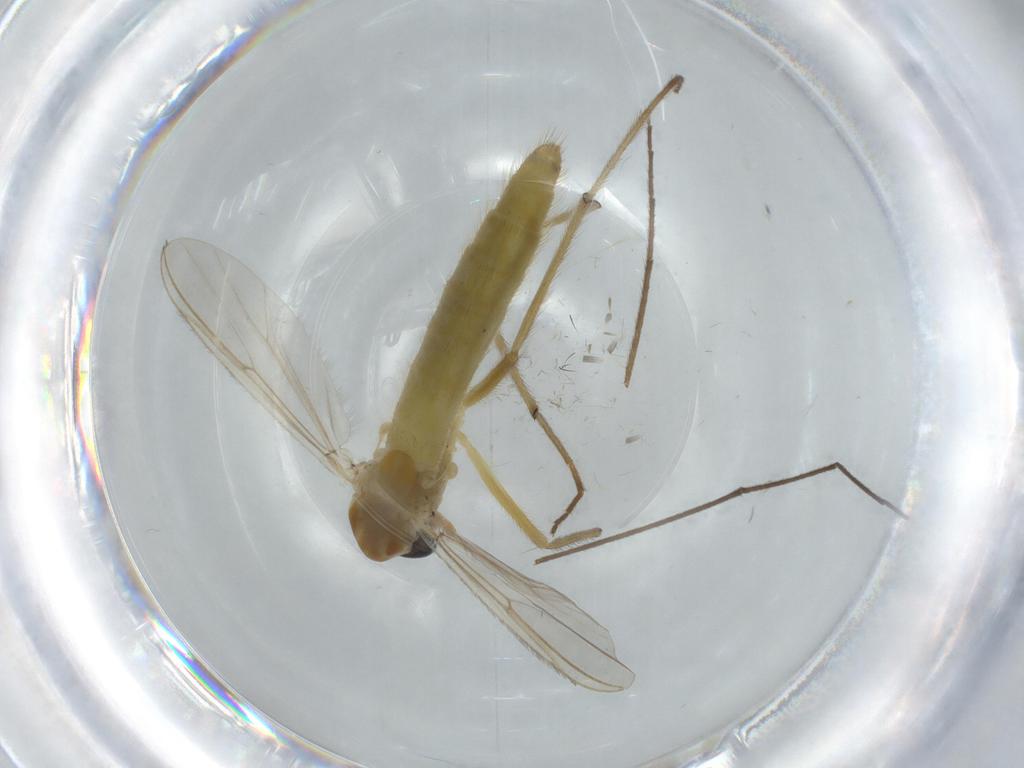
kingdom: Animalia
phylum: Arthropoda
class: Insecta
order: Diptera
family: Chironomidae
